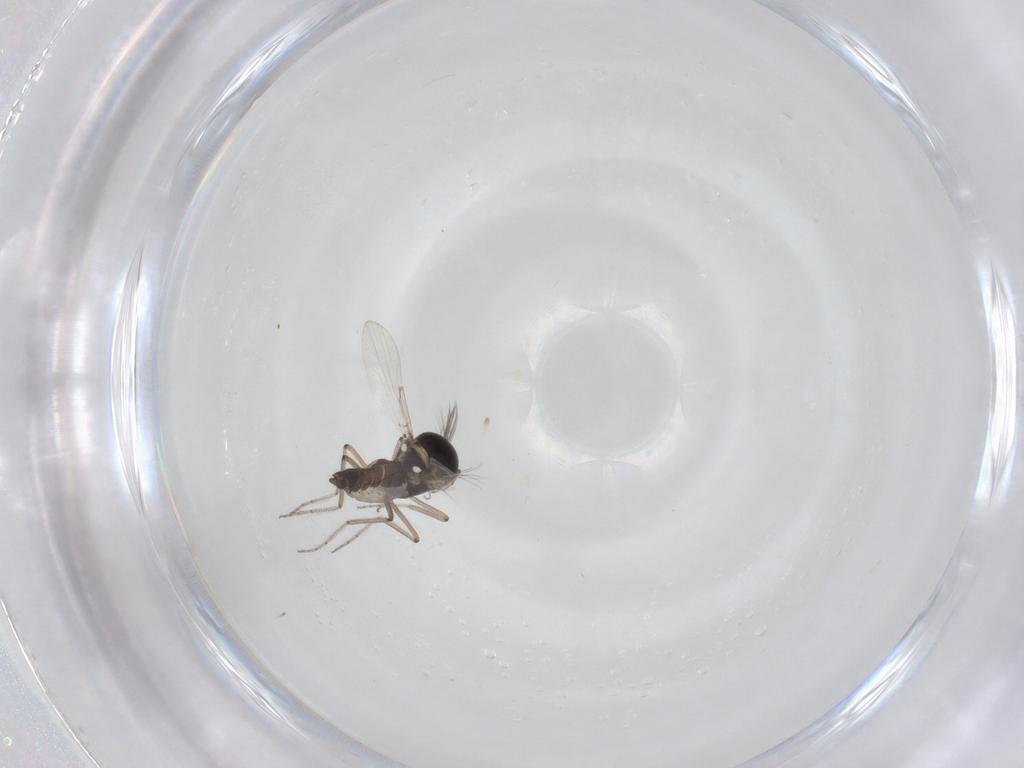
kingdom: Animalia
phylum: Arthropoda
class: Insecta
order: Diptera
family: Ceratopogonidae
